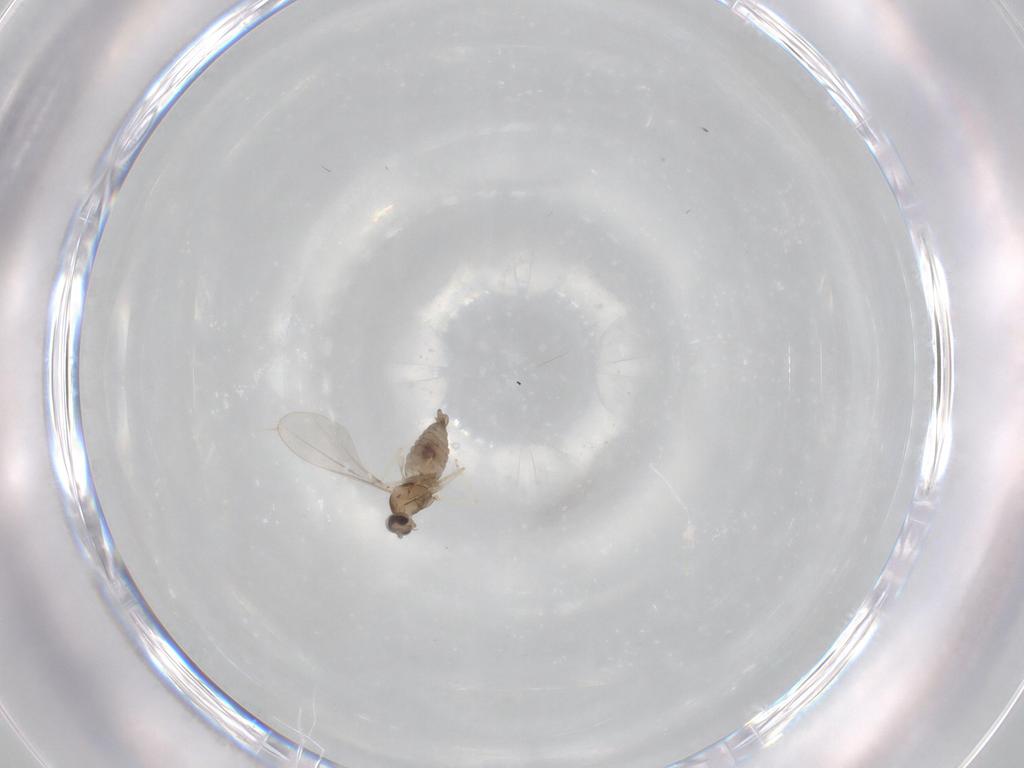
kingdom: Animalia
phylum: Arthropoda
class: Insecta
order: Diptera
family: Cecidomyiidae
